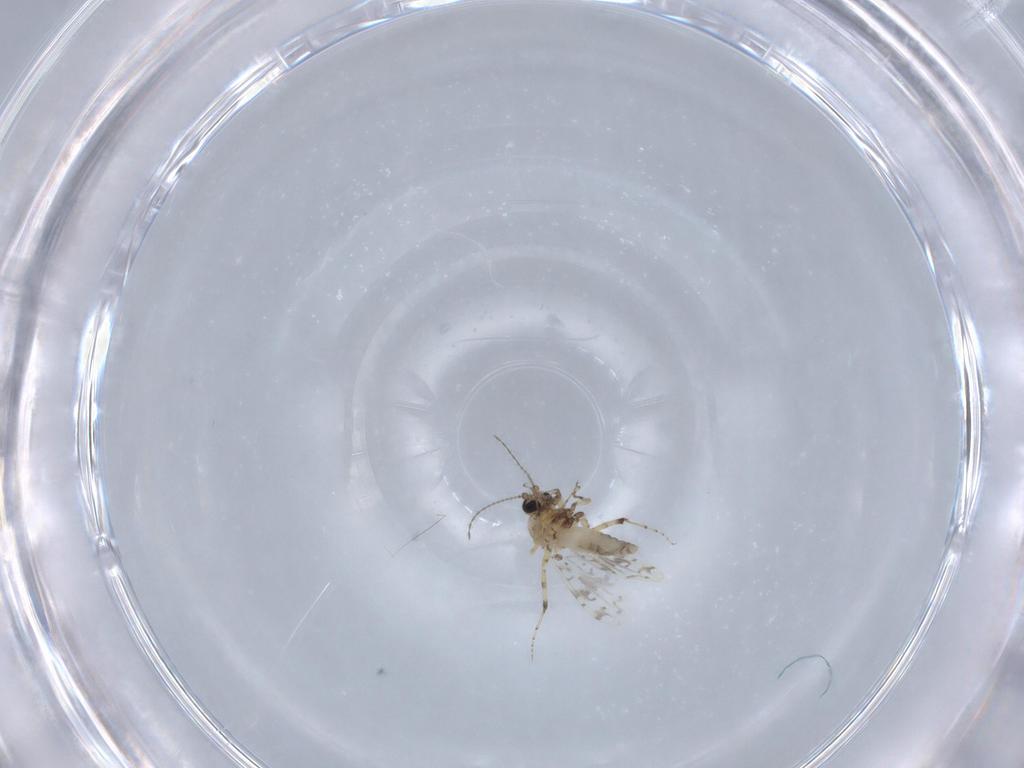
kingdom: Animalia
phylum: Arthropoda
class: Insecta
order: Diptera
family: Ceratopogonidae
